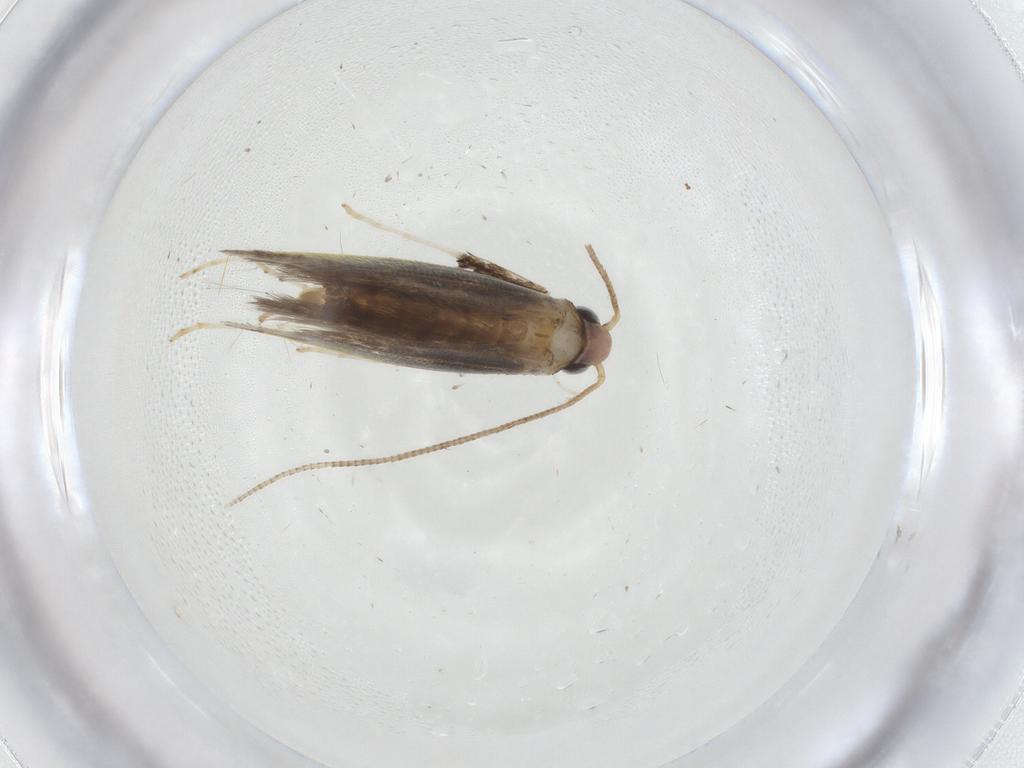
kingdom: Animalia
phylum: Arthropoda
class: Insecta
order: Lepidoptera
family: Gracillariidae
